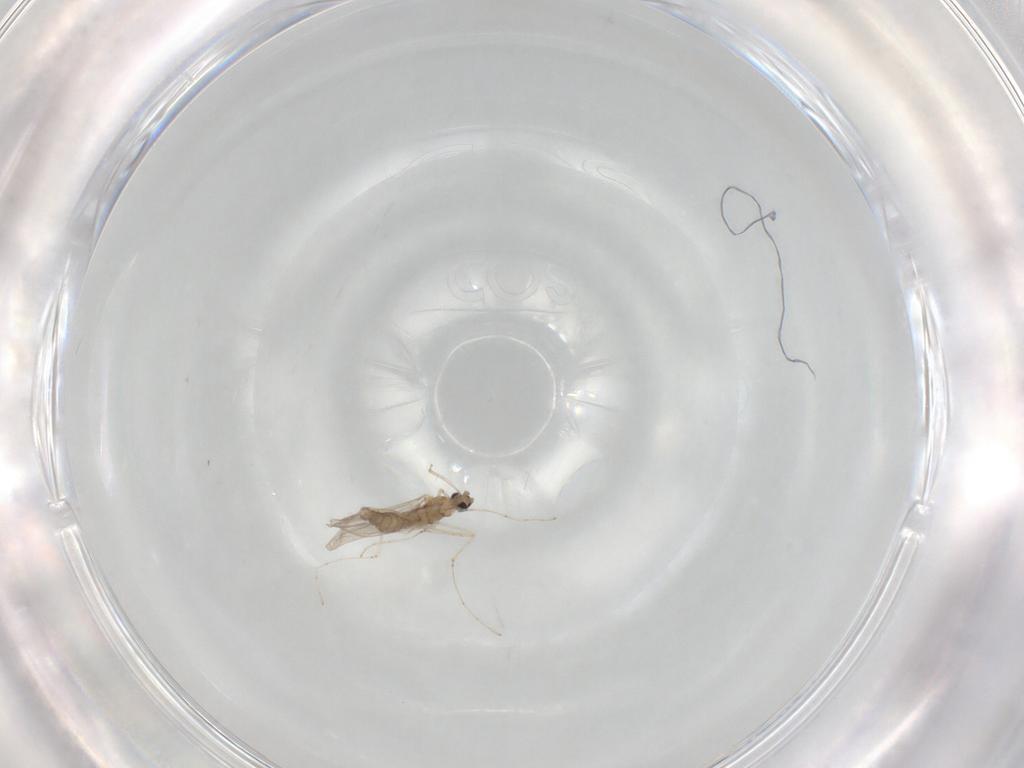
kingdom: Animalia
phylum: Arthropoda
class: Insecta
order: Diptera
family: Cecidomyiidae
